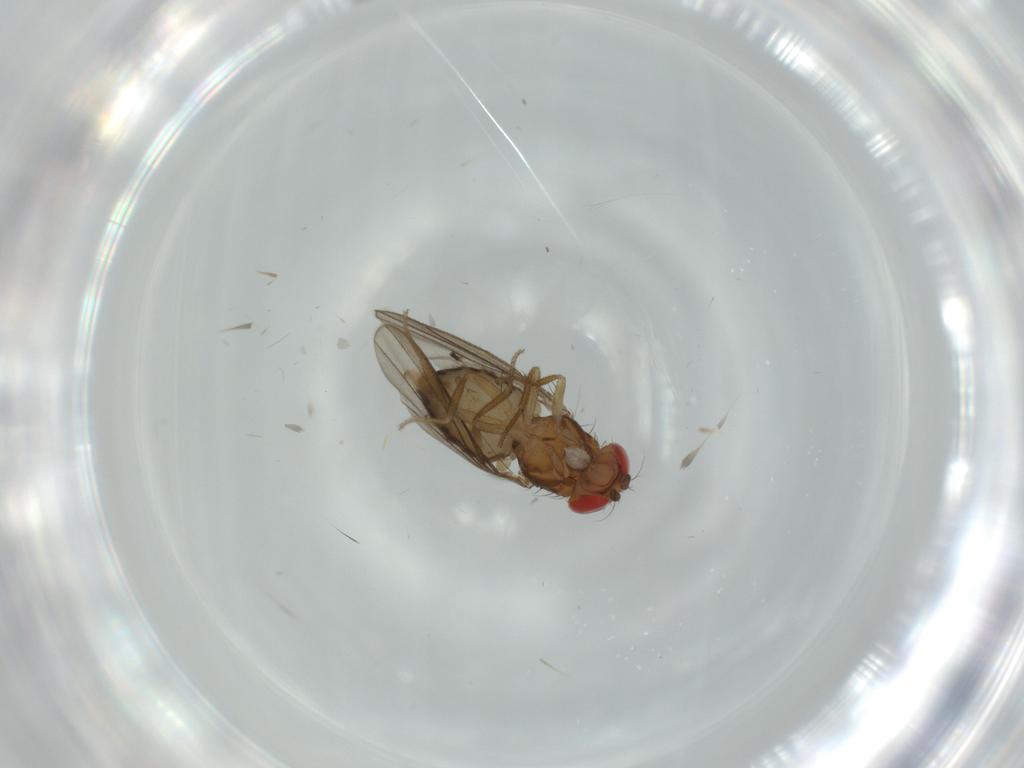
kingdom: Animalia
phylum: Arthropoda
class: Insecta
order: Diptera
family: Drosophilidae
